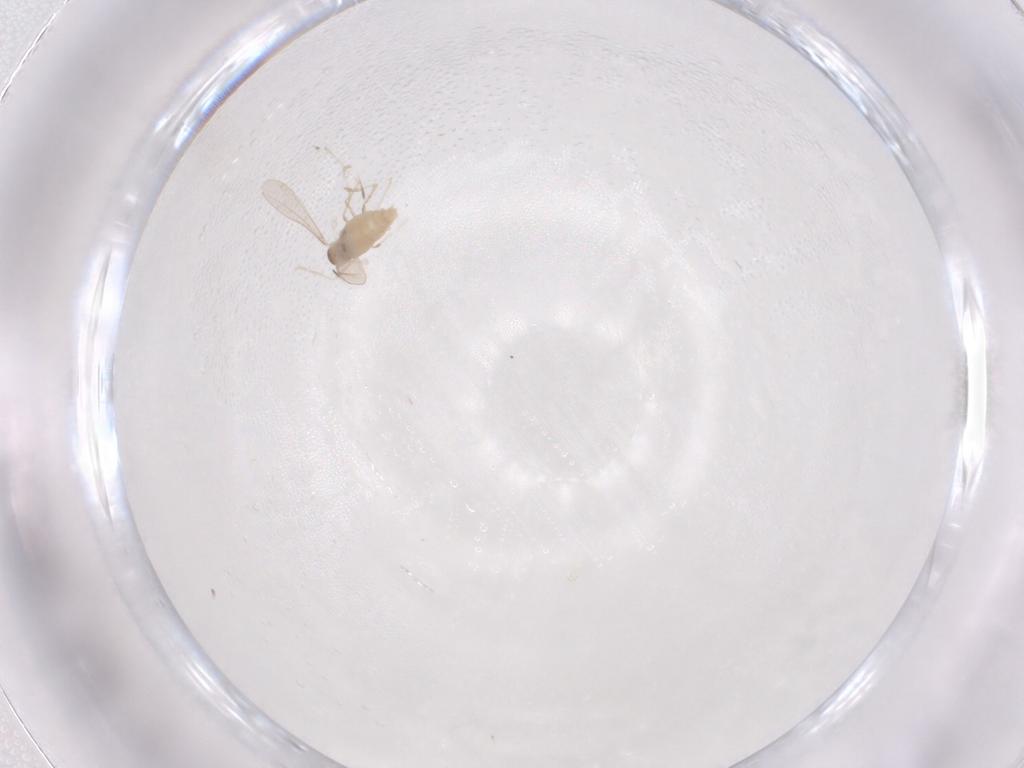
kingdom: Animalia
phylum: Arthropoda
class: Insecta
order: Diptera
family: Cecidomyiidae
